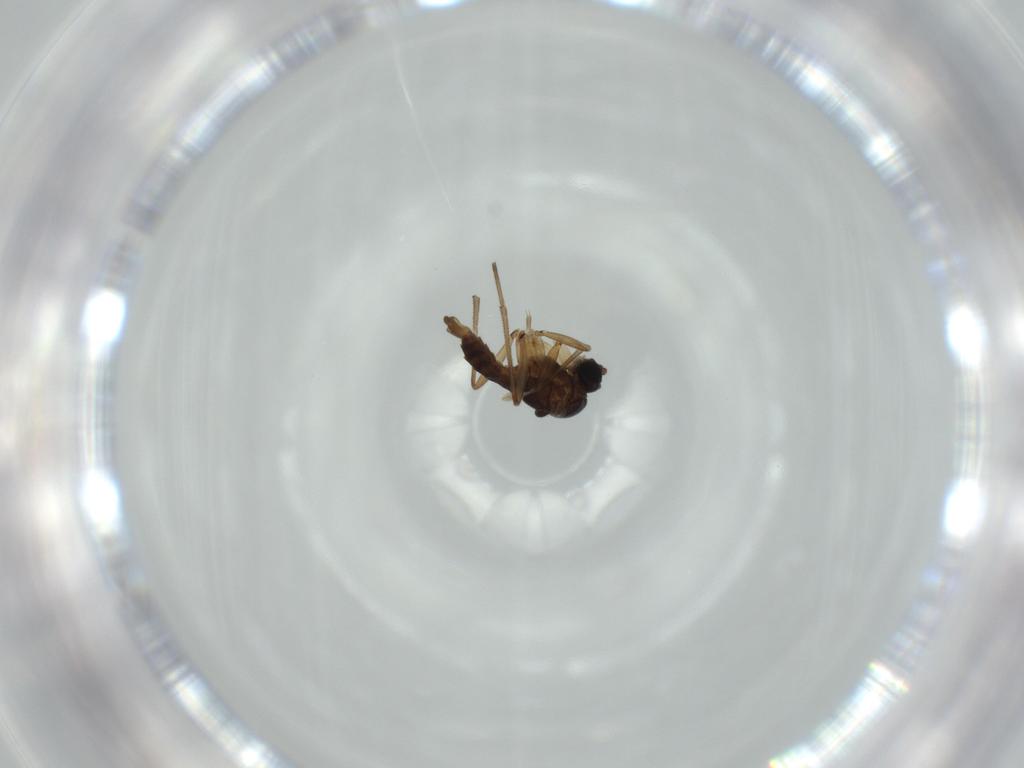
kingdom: Animalia
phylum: Arthropoda
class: Insecta
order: Diptera
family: Sciaridae
